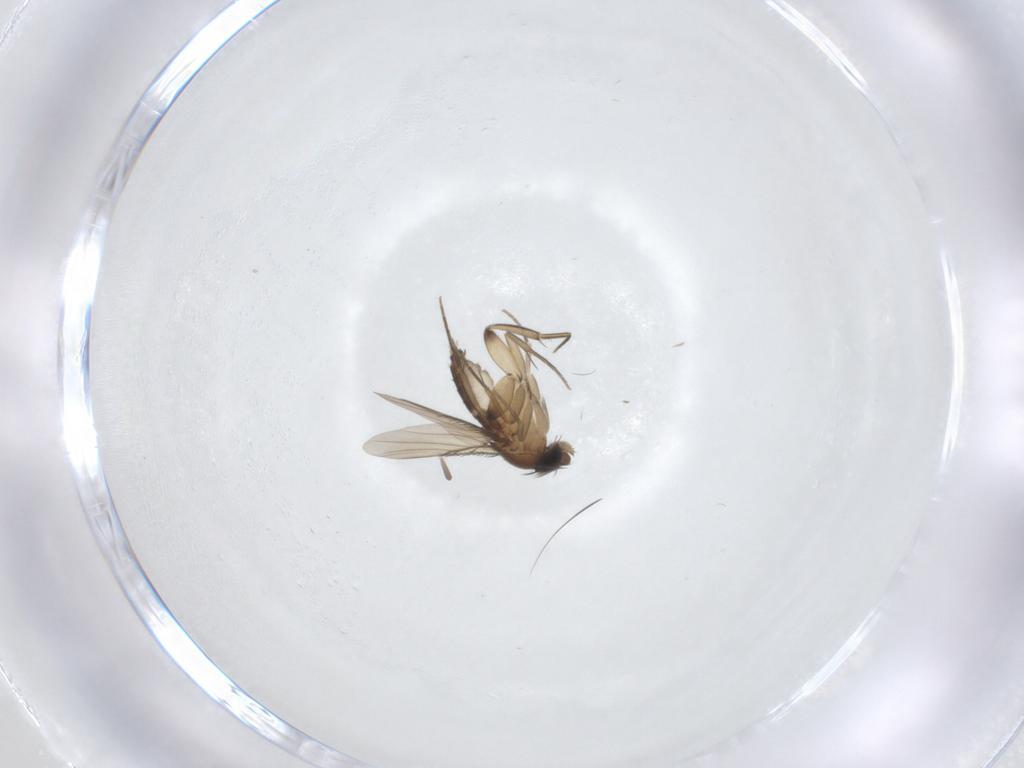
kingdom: Animalia
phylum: Arthropoda
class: Insecta
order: Diptera
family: Phoridae
